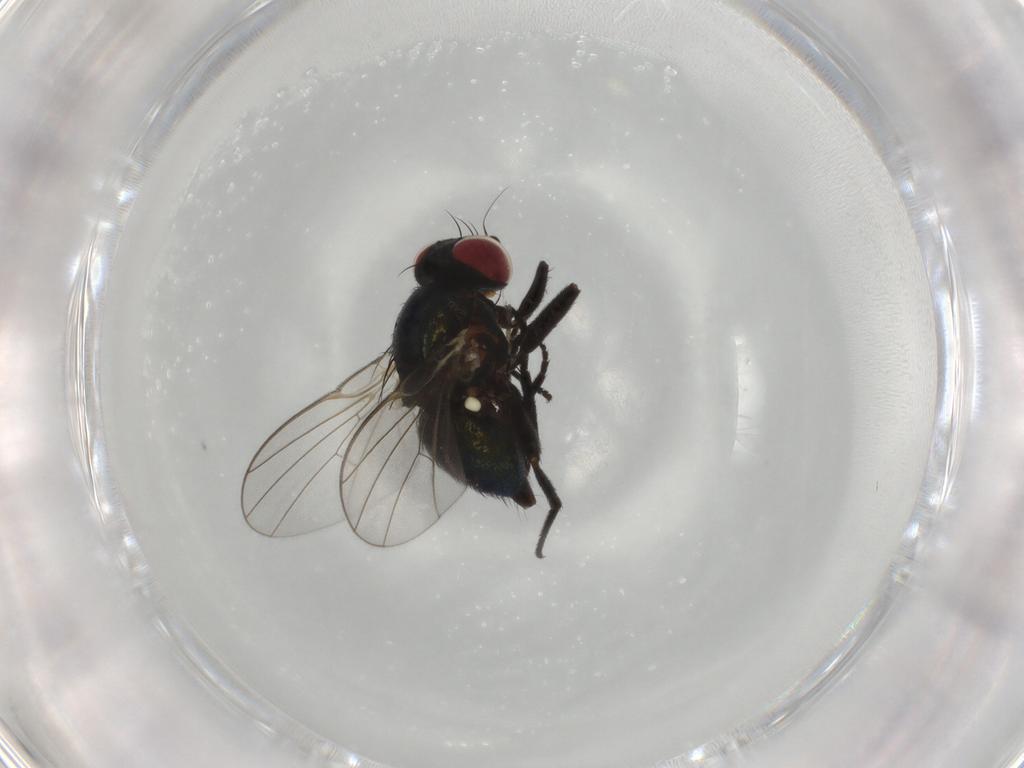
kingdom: Animalia
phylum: Arthropoda
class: Insecta
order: Diptera
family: Agromyzidae
